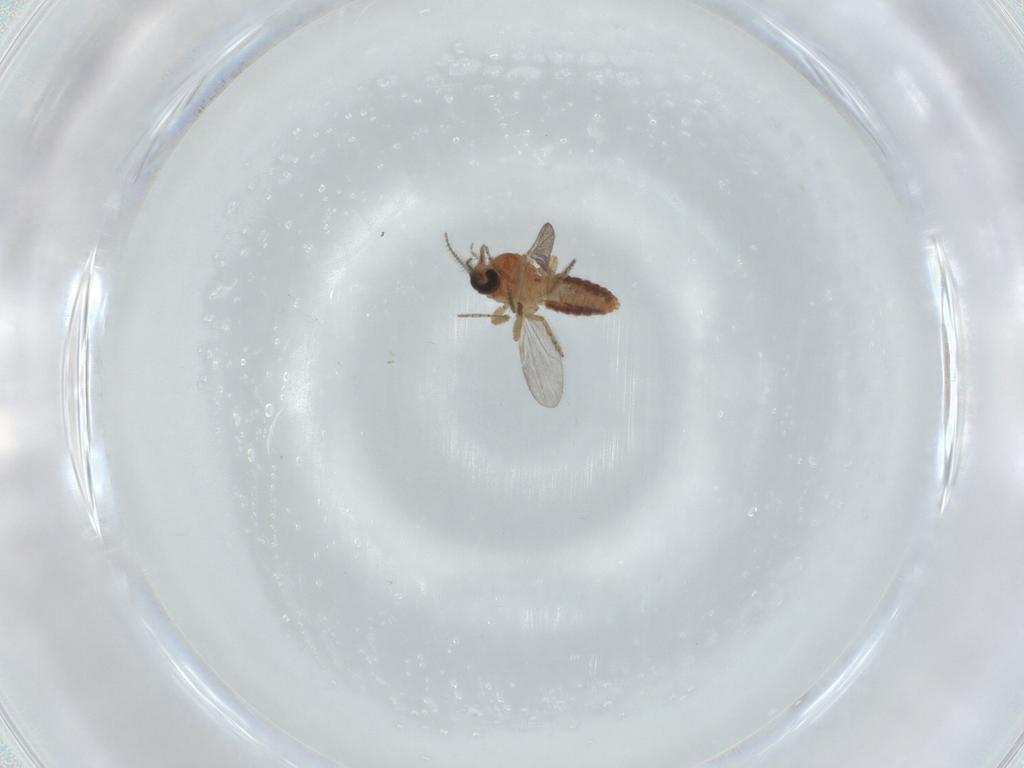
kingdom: Animalia
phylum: Arthropoda
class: Insecta
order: Diptera
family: Ceratopogonidae
